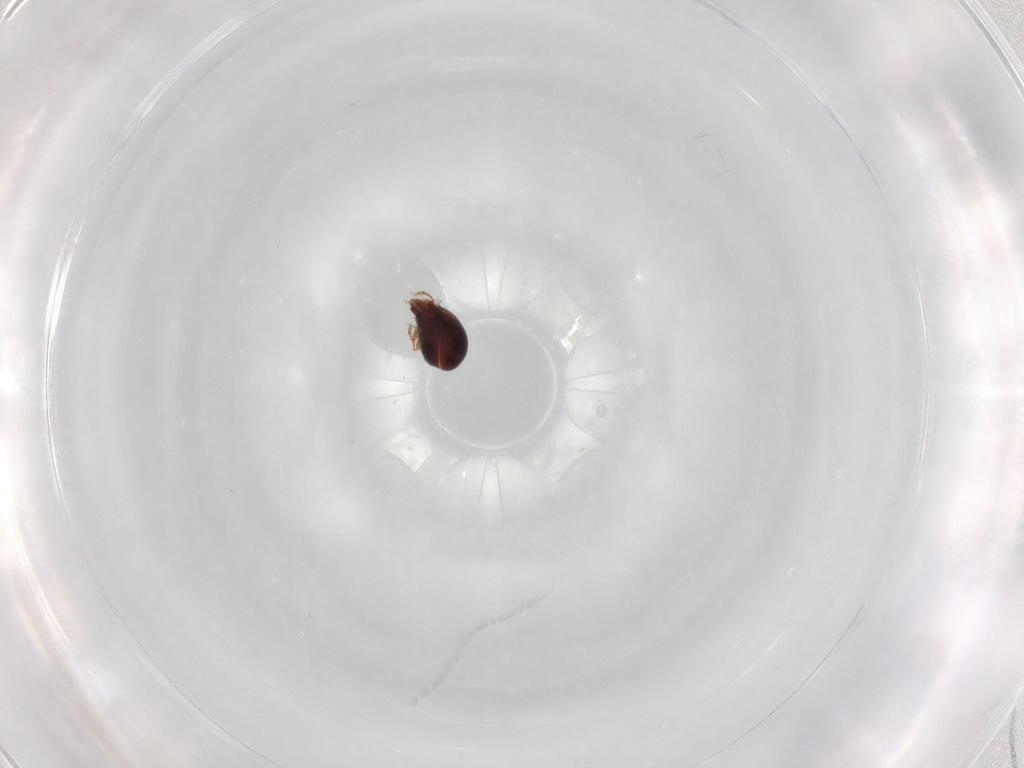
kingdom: Animalia
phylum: Arthropoda
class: Arachnida
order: Sarcoptiformes
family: Ceratozetidae
